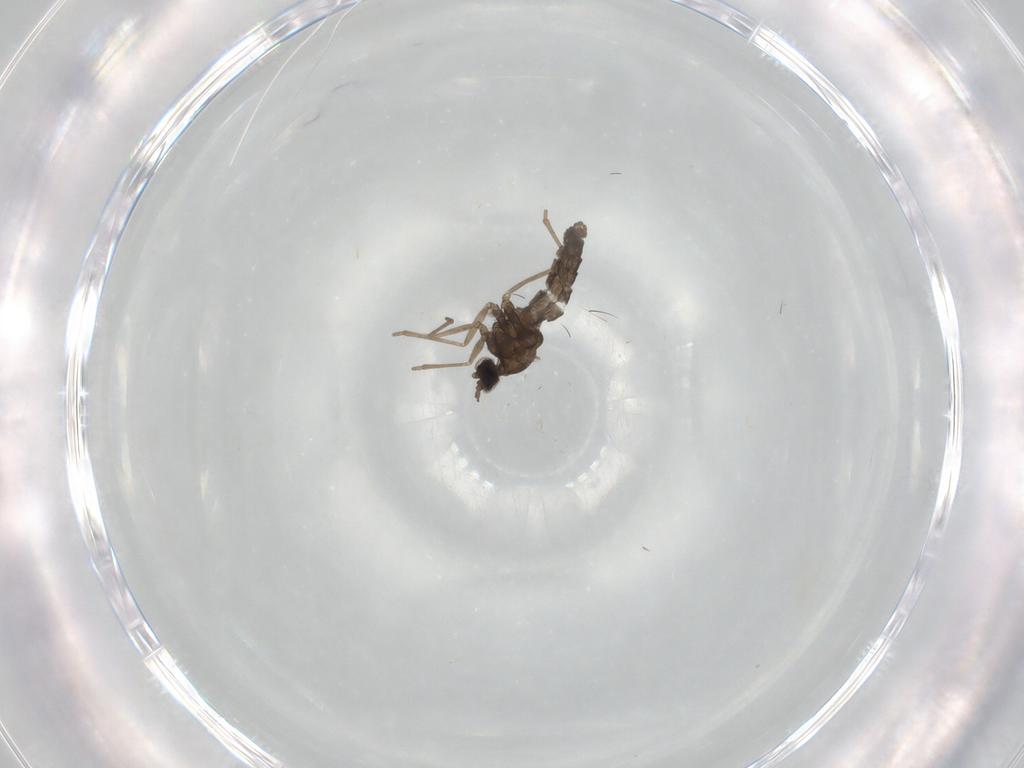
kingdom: Animalia
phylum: Arthropoda
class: Insecta
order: Diptera
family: Cecidomyiidae
